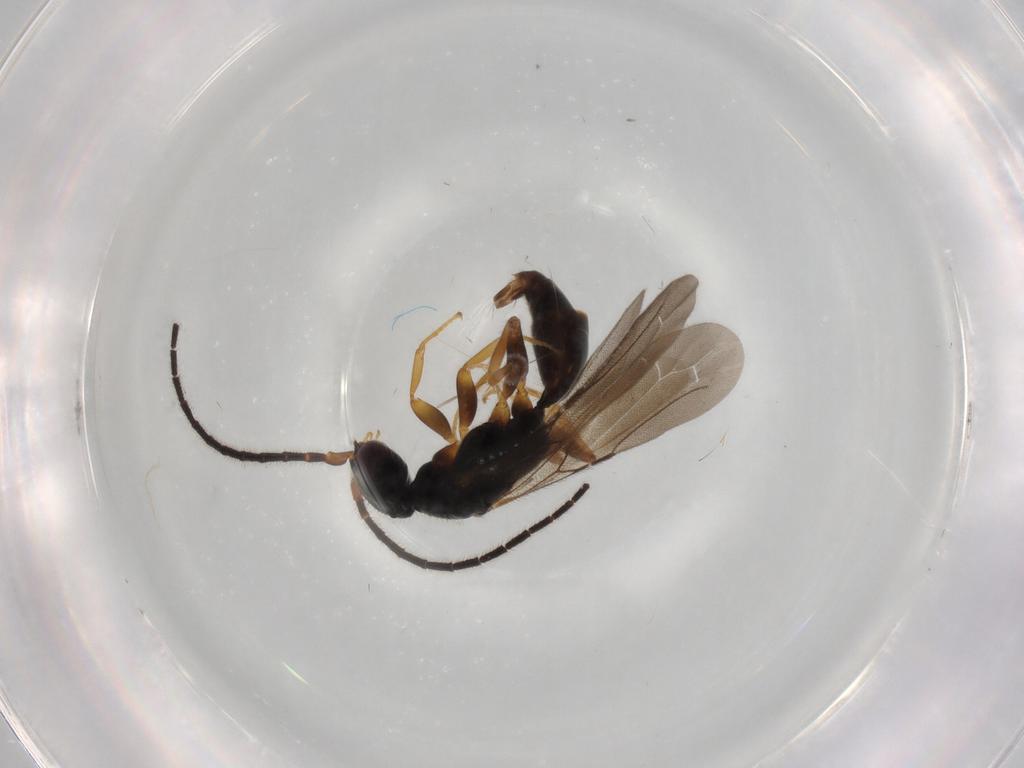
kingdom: Animalia
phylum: Arthropoda
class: Insecta
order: Hymenoptera
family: Bethylidae
